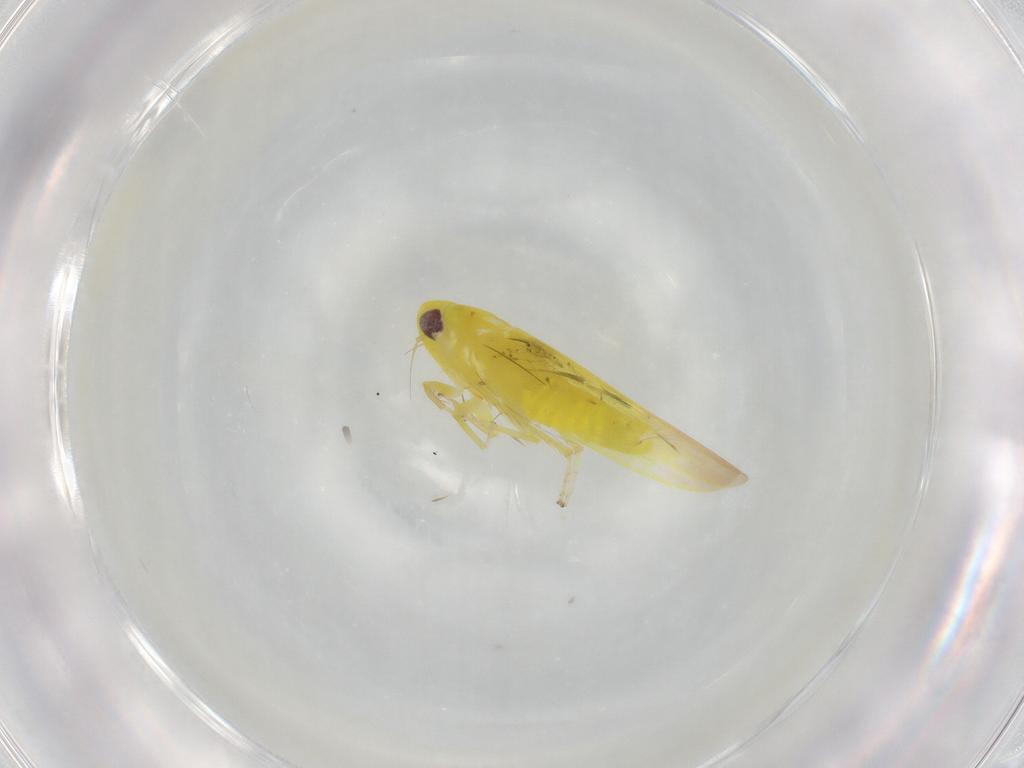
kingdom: Animalia
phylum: Arthropoda
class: Insecta
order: Hemiptera
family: Cicadellidae
